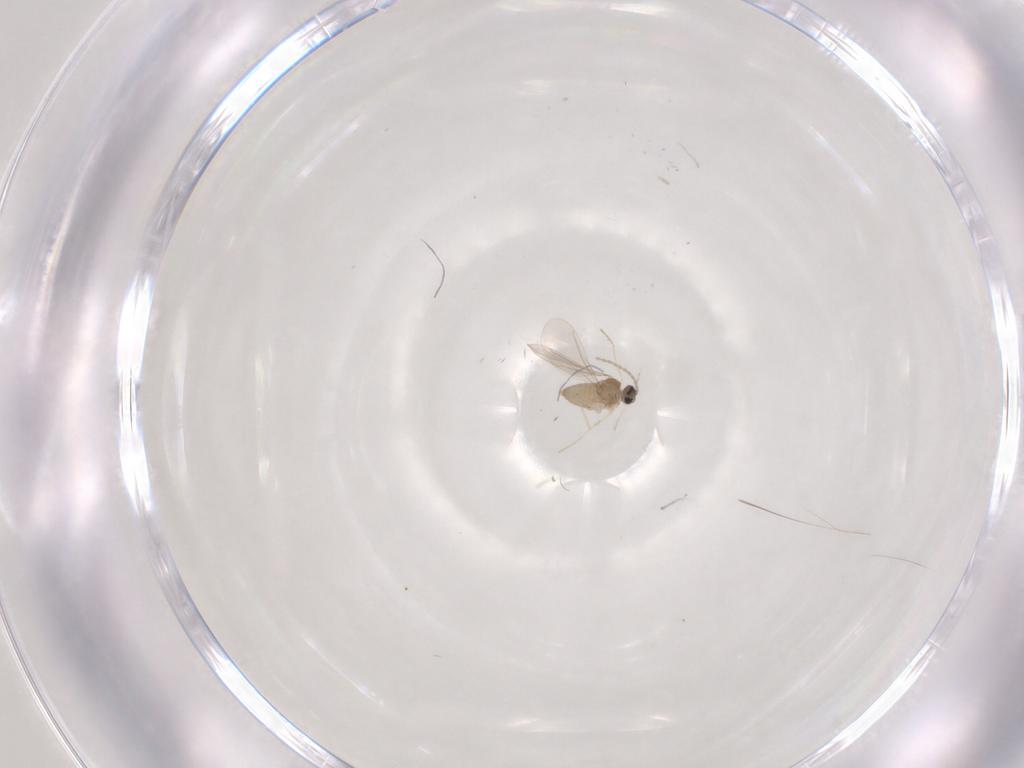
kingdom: Animalia
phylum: Arthropoda
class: Insecta
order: Diptera
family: Cecidomyiidae
